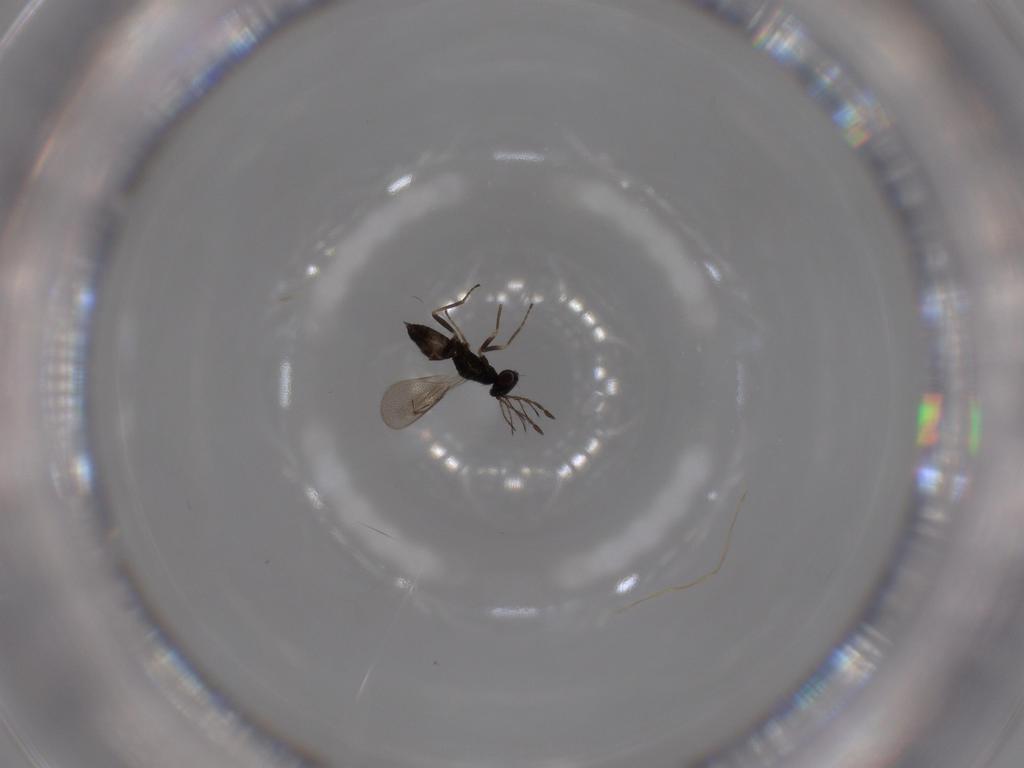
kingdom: Animalia
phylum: Arthropoda
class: Insecta
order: Hymenoptera
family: Eulophidae
